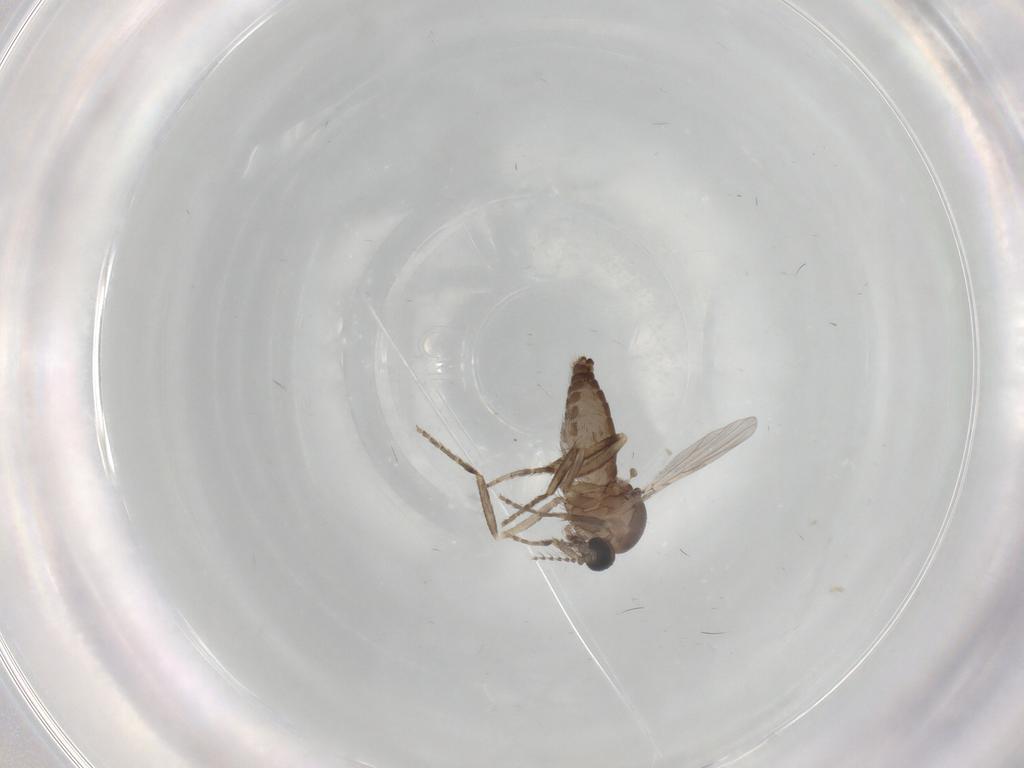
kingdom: Animalia
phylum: Arthropoda
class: Insecta
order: Diptera
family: Ceratopogonidae
